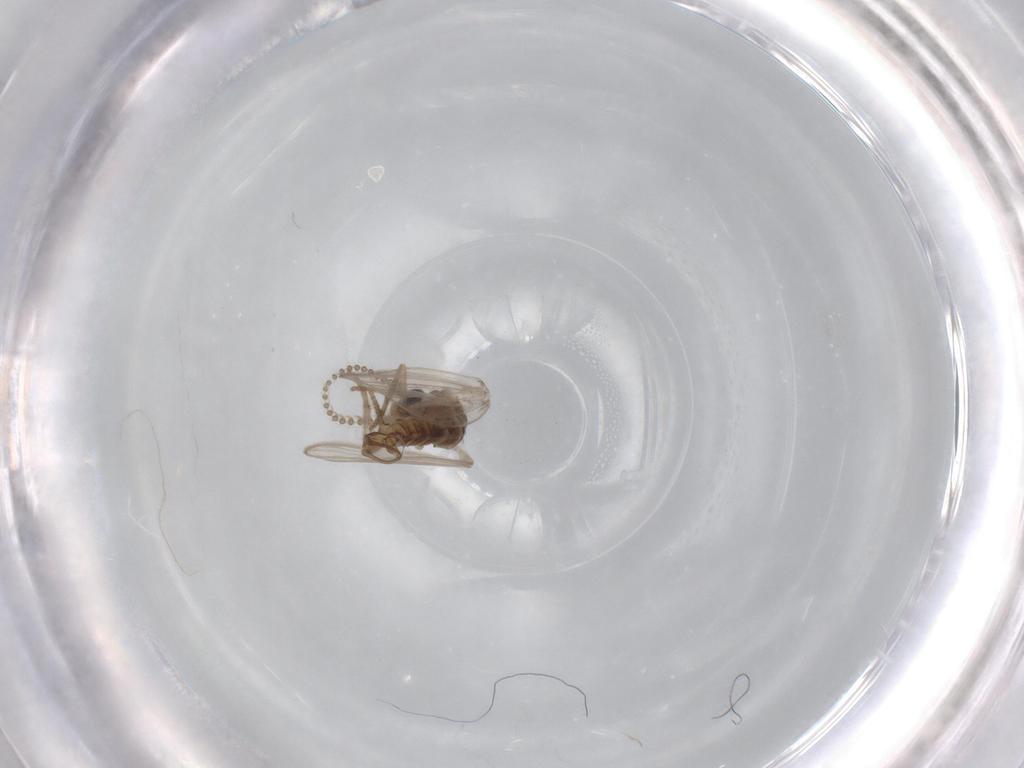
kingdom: Animalia
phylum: Arthropoda
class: Insecta
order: Diptera
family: Psychodidae
